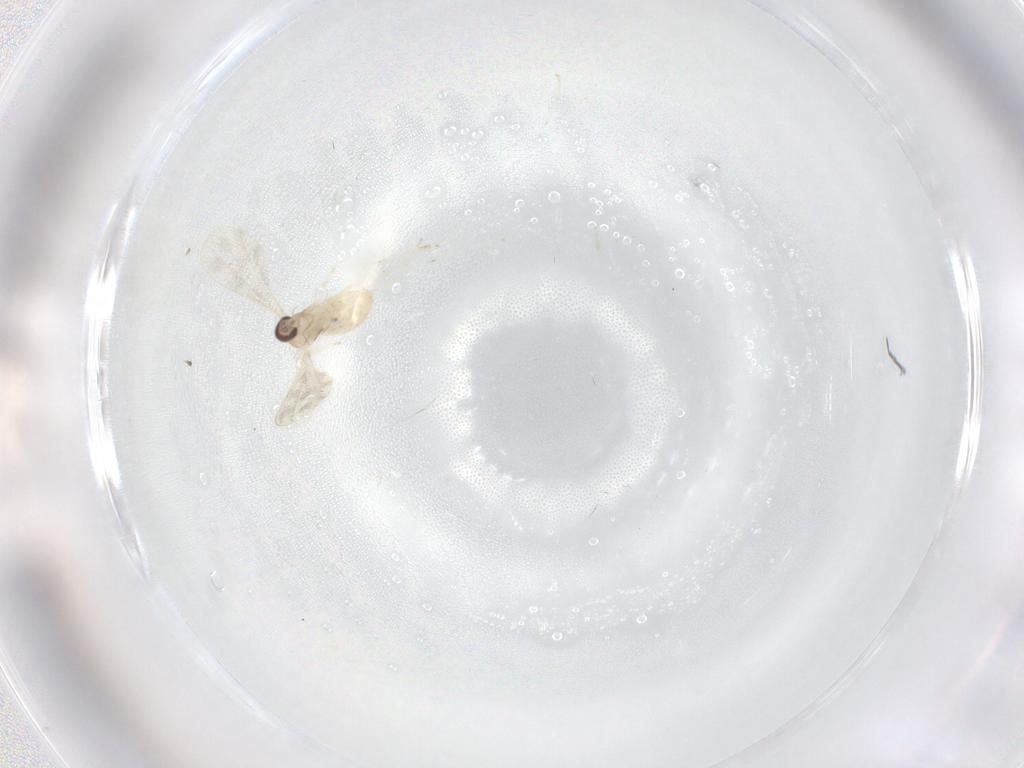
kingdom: Animalia
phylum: Arthropoda
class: Insecta
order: Diptera
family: Cecidomyiidae
